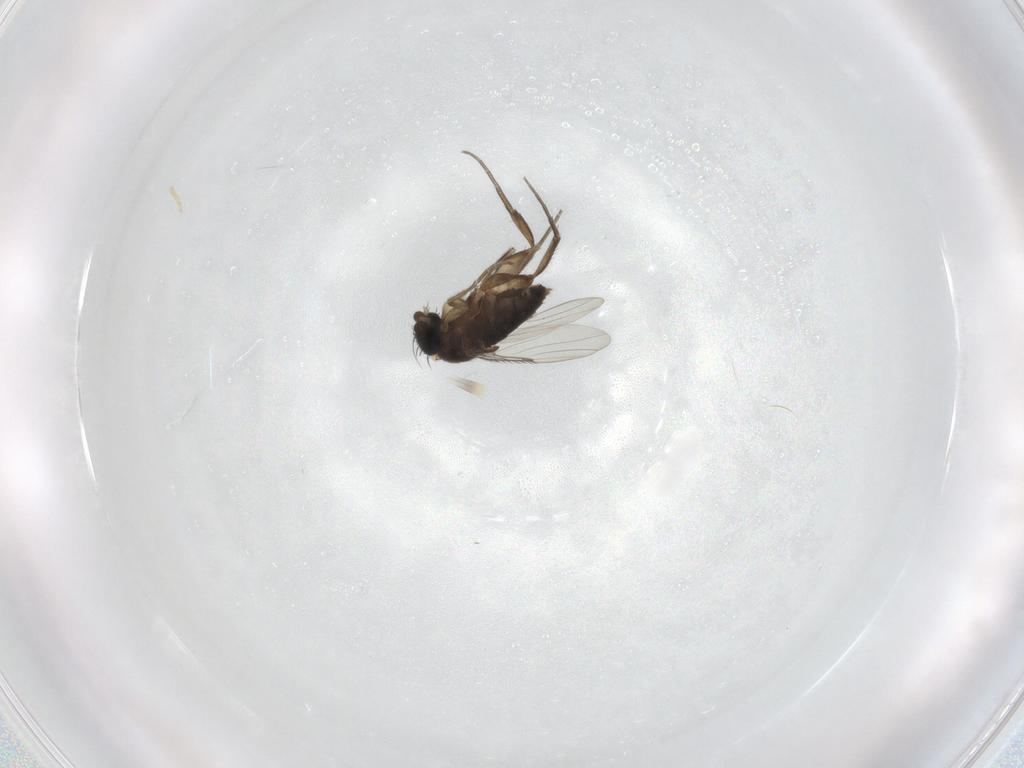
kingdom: Animalia
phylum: Arthropoda
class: Insecta
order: Diptera
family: Phoridae
